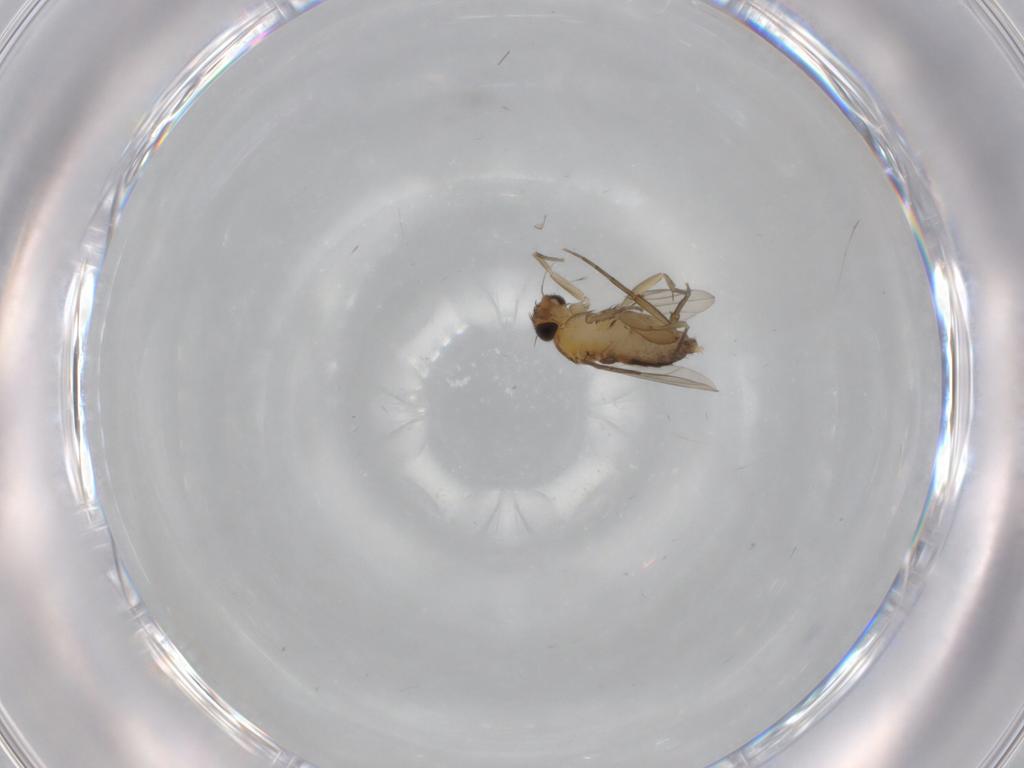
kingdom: Animalia
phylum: Arthropoda
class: Insecta
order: Diptera
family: Phoridae
